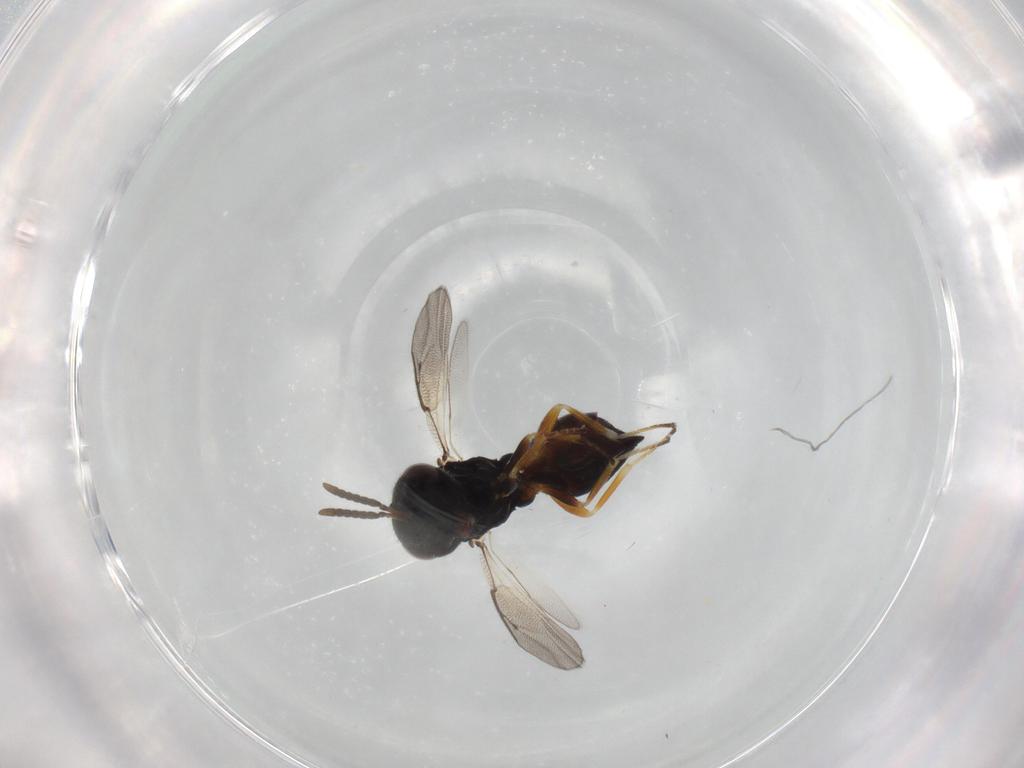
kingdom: Animalia
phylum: Arthropoda
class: Insecta
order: Hymenoptera
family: Pteromalidae
